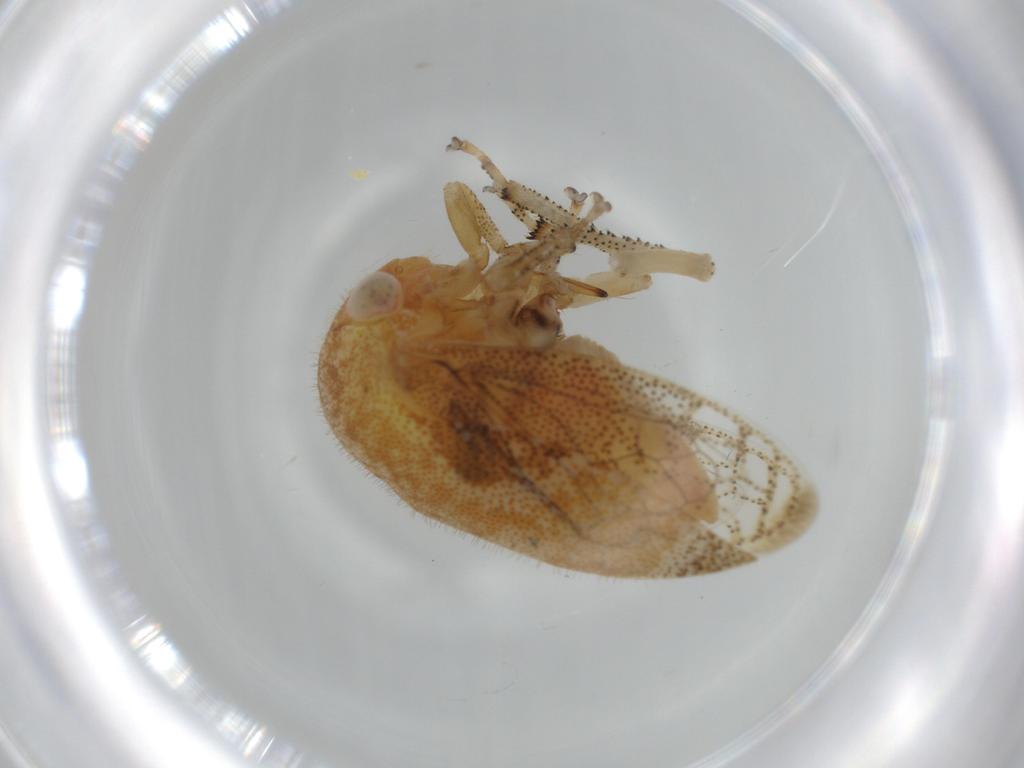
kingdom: Animalia
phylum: Arthropoda
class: Insecta
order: Hemiptera
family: Membracidae
